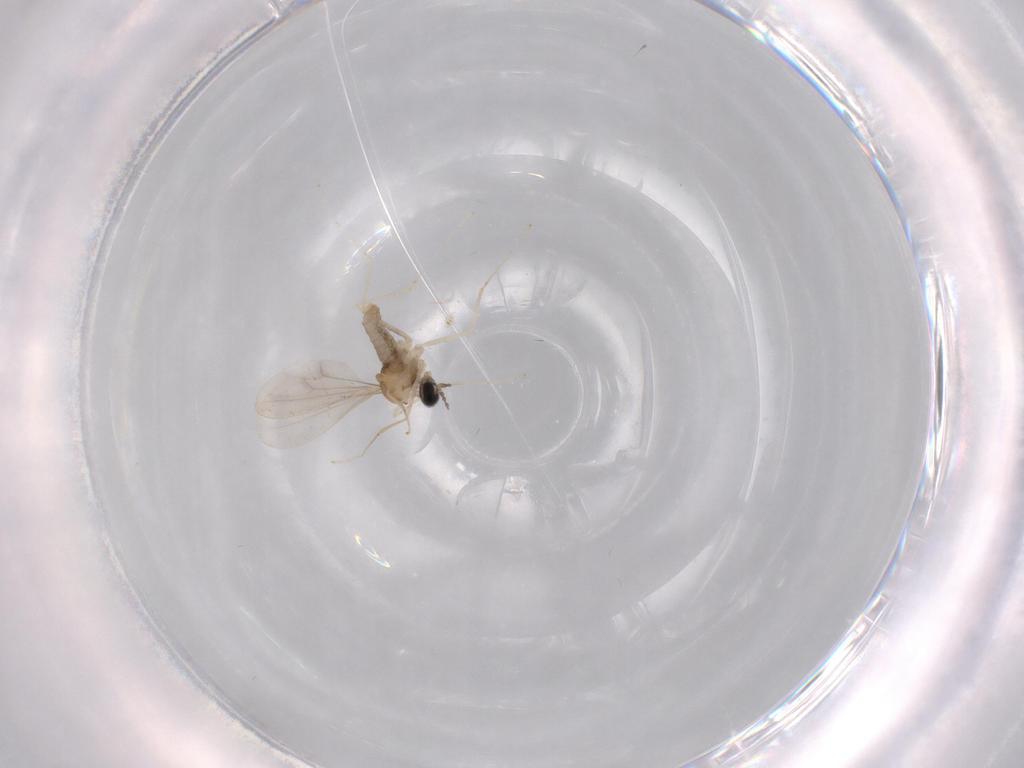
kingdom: Animalia
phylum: Arthropoda
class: Insecta
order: Diptera
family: Cecidomyiidae
